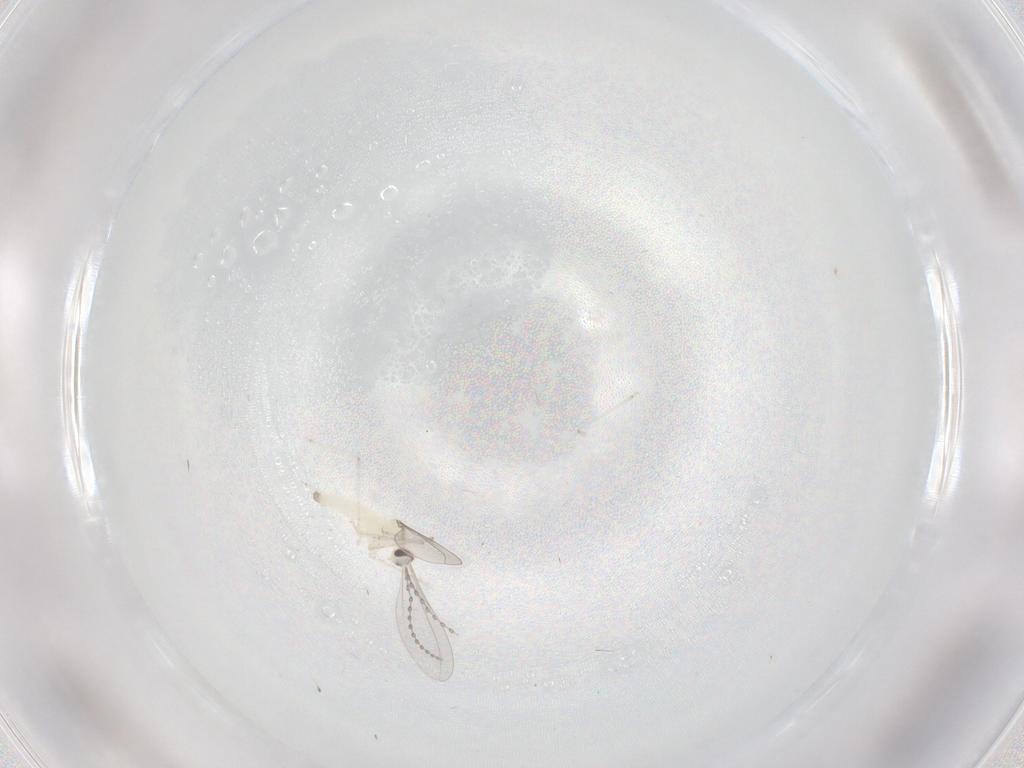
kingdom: Animalia
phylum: Arthropoda
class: Insecta
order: Diptera
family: Cecidomyiidae
